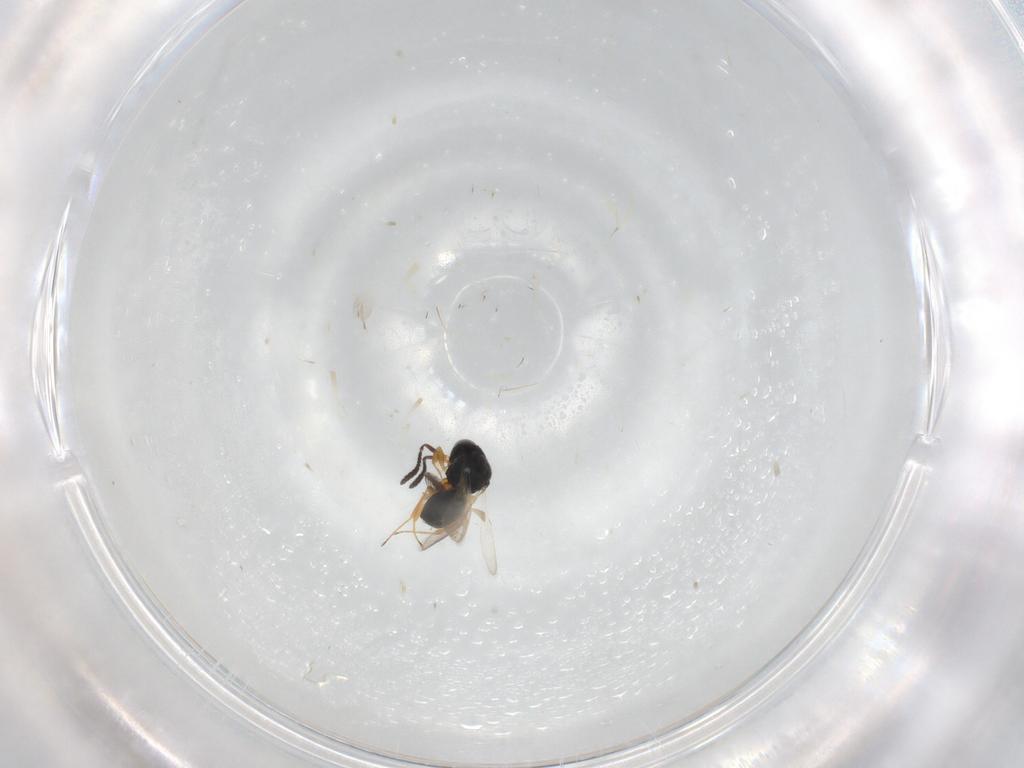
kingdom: Animalia
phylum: Arthropoda
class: Insecta
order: Hymenoptera
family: Scelionidae
